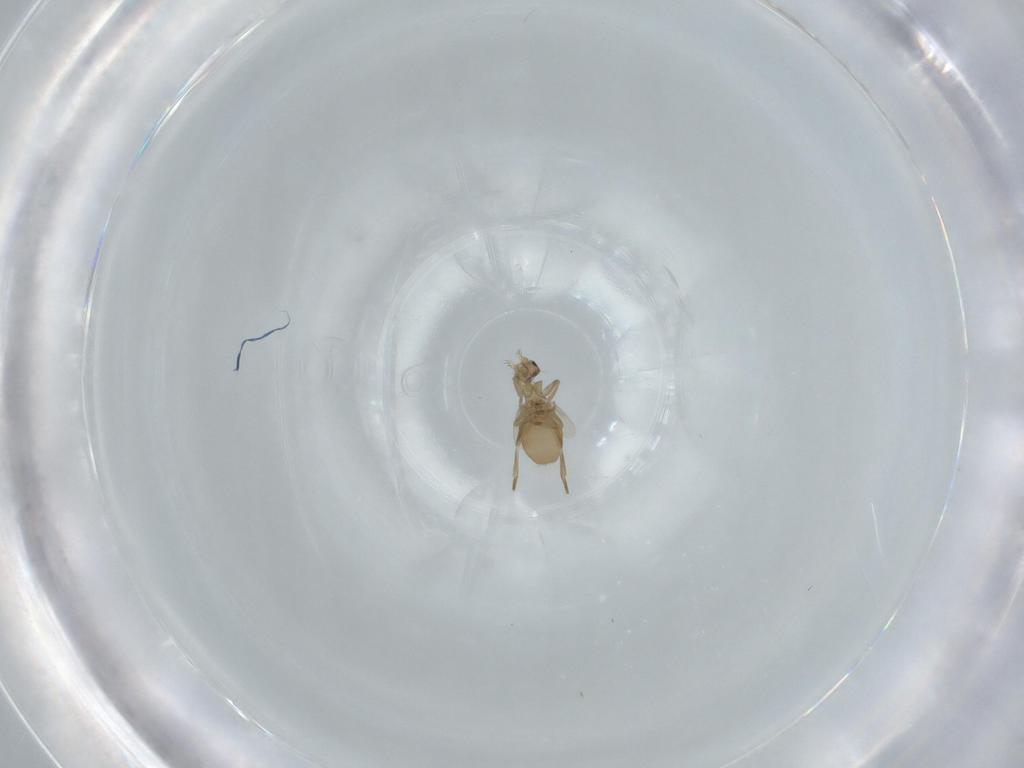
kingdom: Animalia
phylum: Arthropoda
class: Insecta
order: Diptera
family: Phoridae
